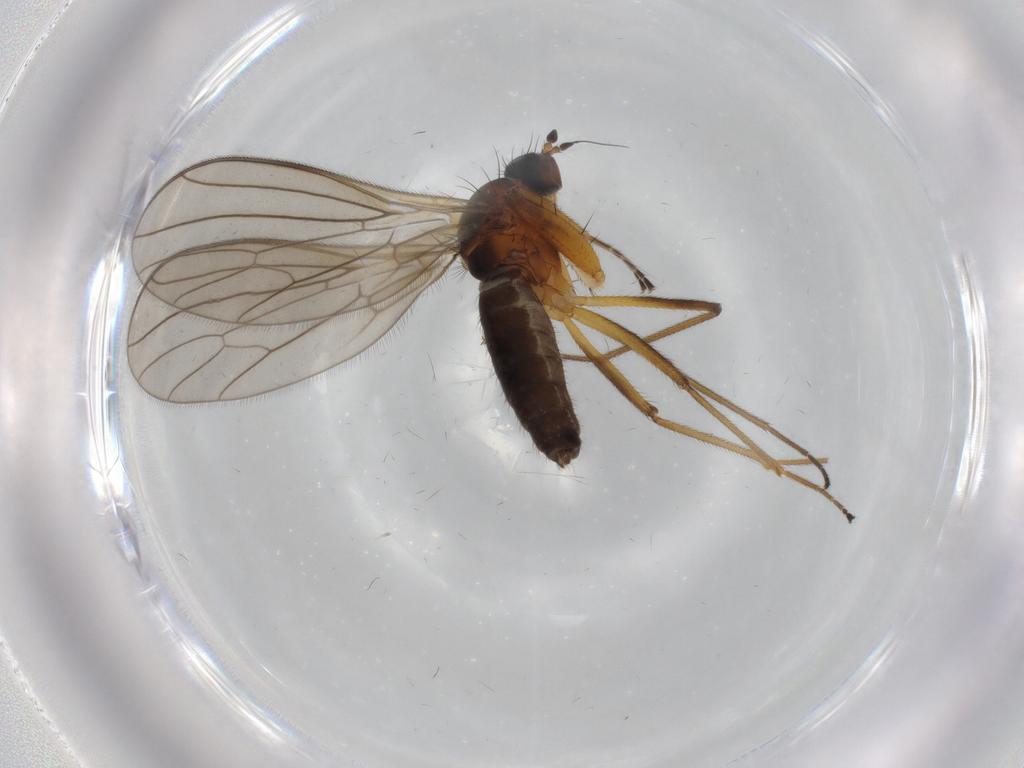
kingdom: Animalia
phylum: Arthropoda
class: Insecta
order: Diptera
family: Empididae
